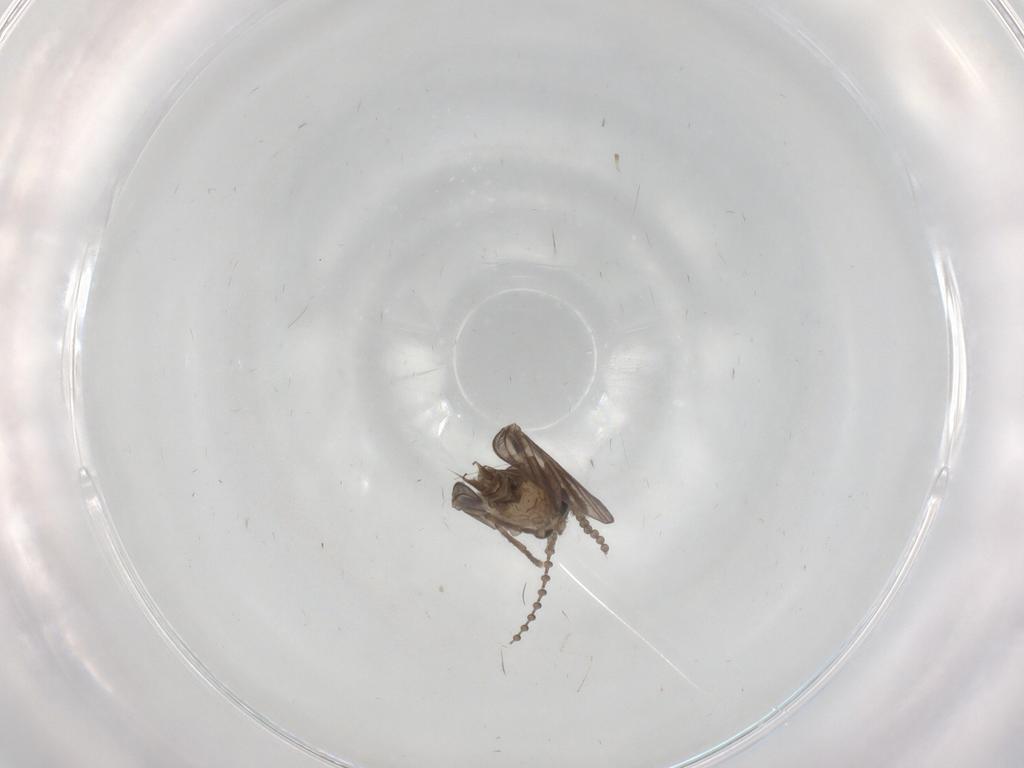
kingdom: Animalia
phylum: Arthropoda
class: Insecta
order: Diptera
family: Psychodidae
